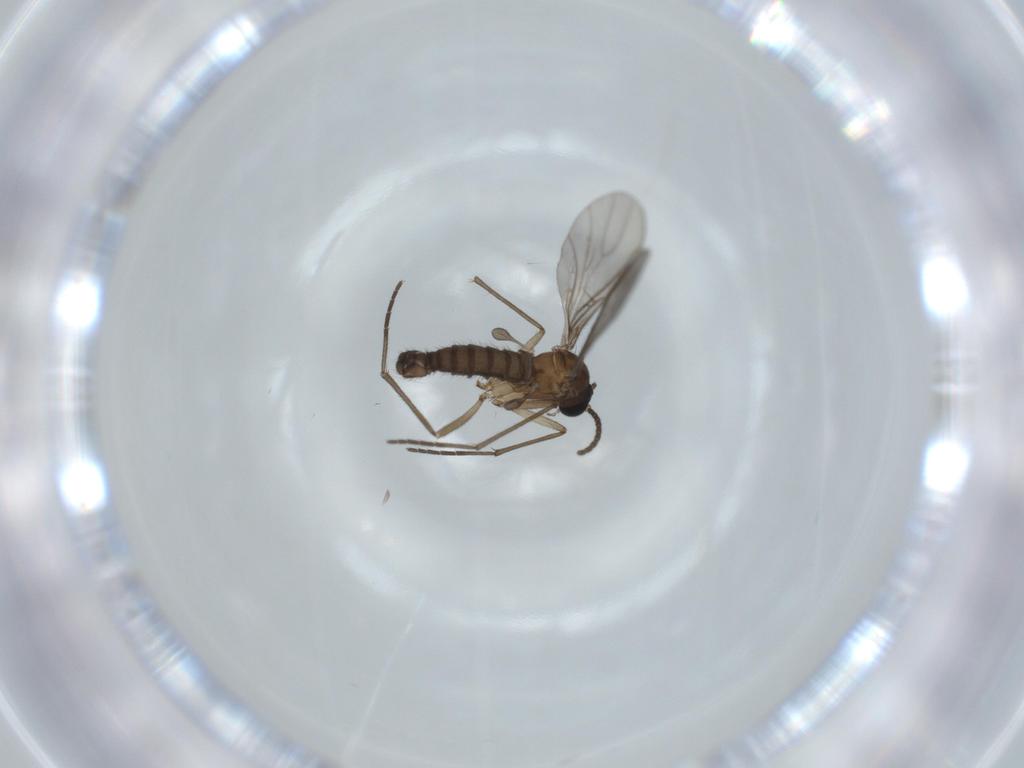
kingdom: Animalia
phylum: Arthropoda
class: Insecta
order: Diptera
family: Sciaridae
